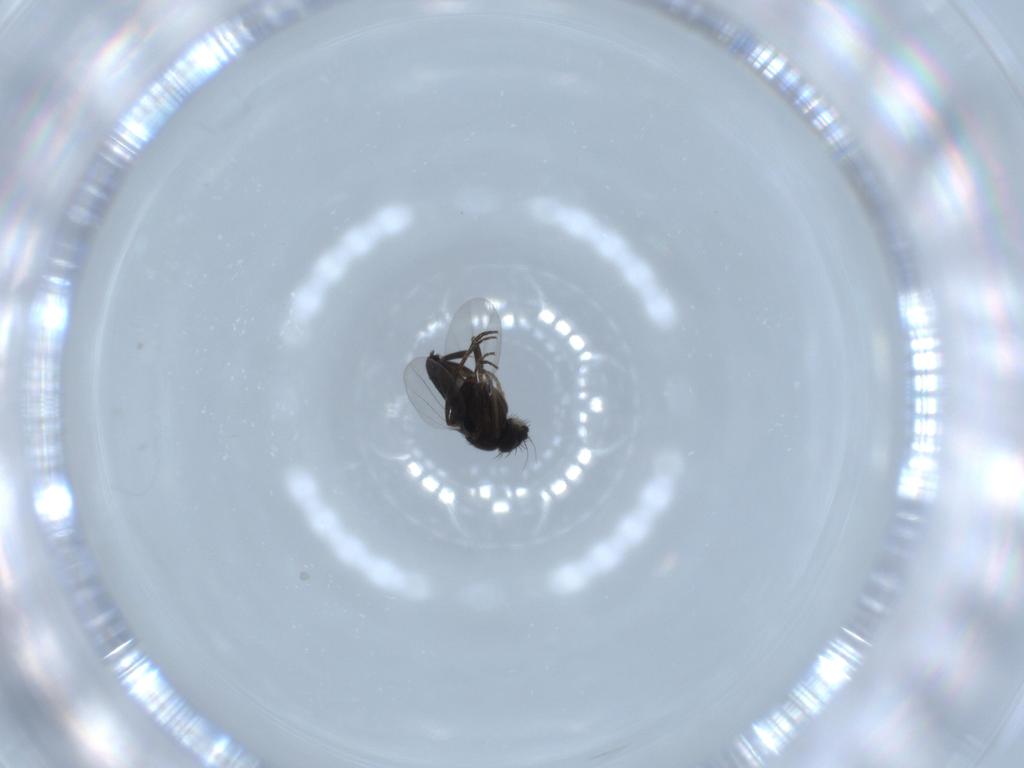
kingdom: Animalia
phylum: Arthropoda
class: Insecta
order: Diptera
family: Phoridae
